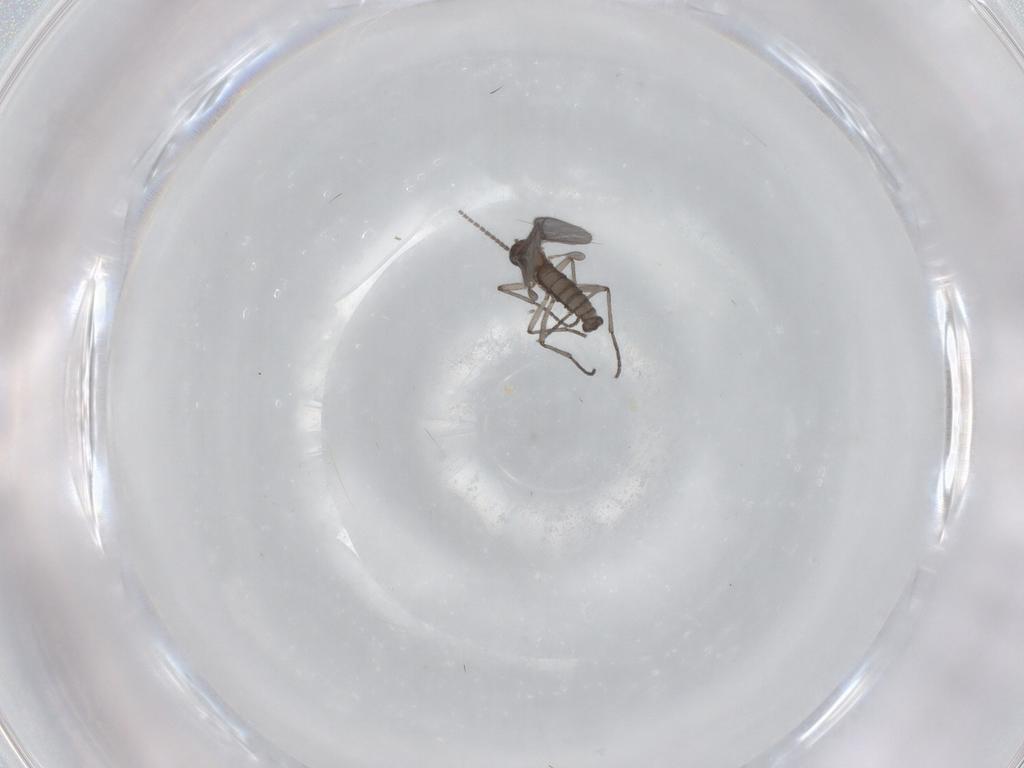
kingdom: Animalia
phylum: Arthropoda
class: Insecta
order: Diptera
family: Sciaridae
